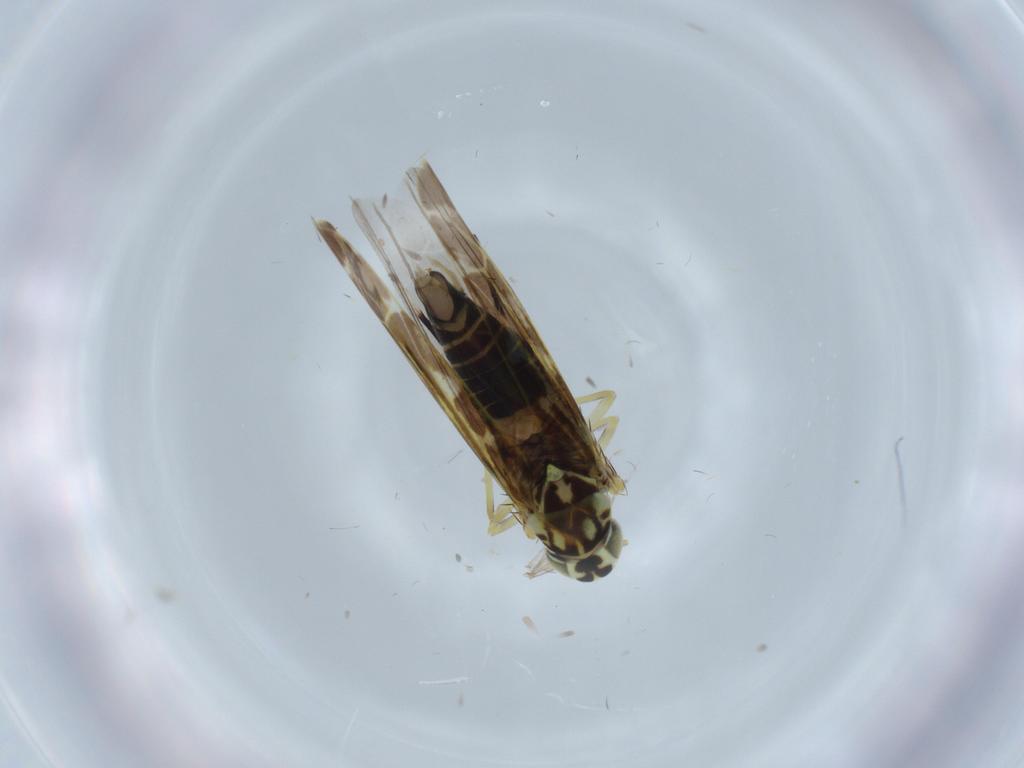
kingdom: Animalia
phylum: Arthropoda
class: Insecta
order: Hemiptera
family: Cicadellidae
